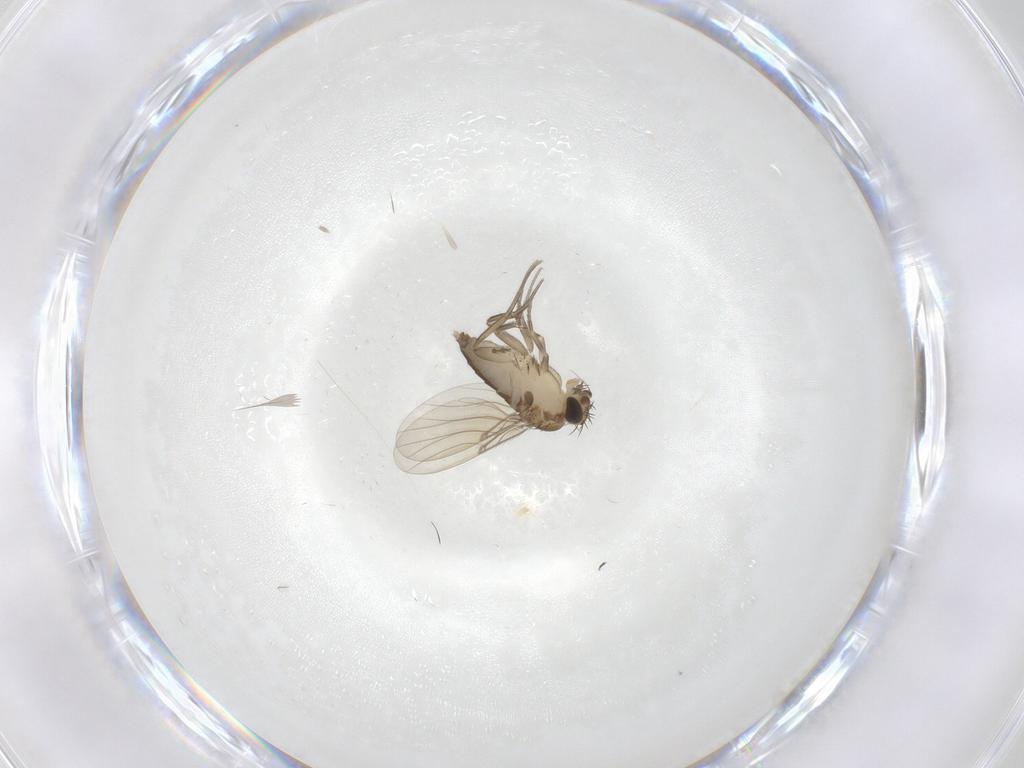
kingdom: Animalia
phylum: Arthropoda
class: Insecta
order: Diptera
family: Phoridae
